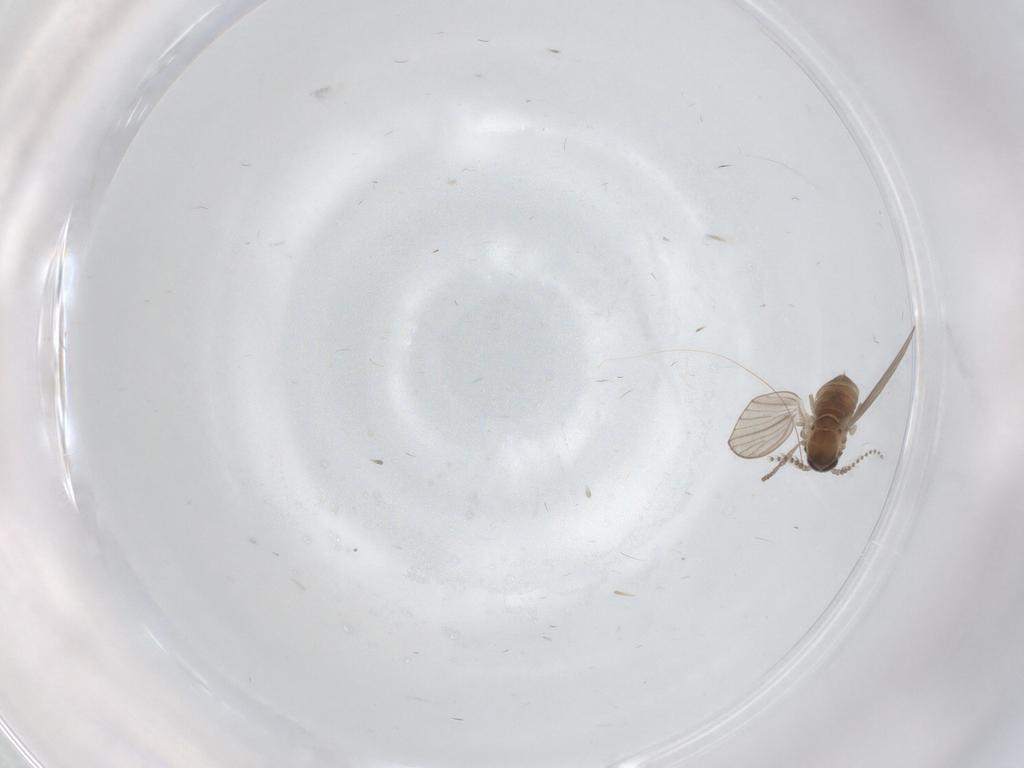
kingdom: Animalia
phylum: Arthropoda
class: Insecta
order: Diptera
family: Psychodidae
